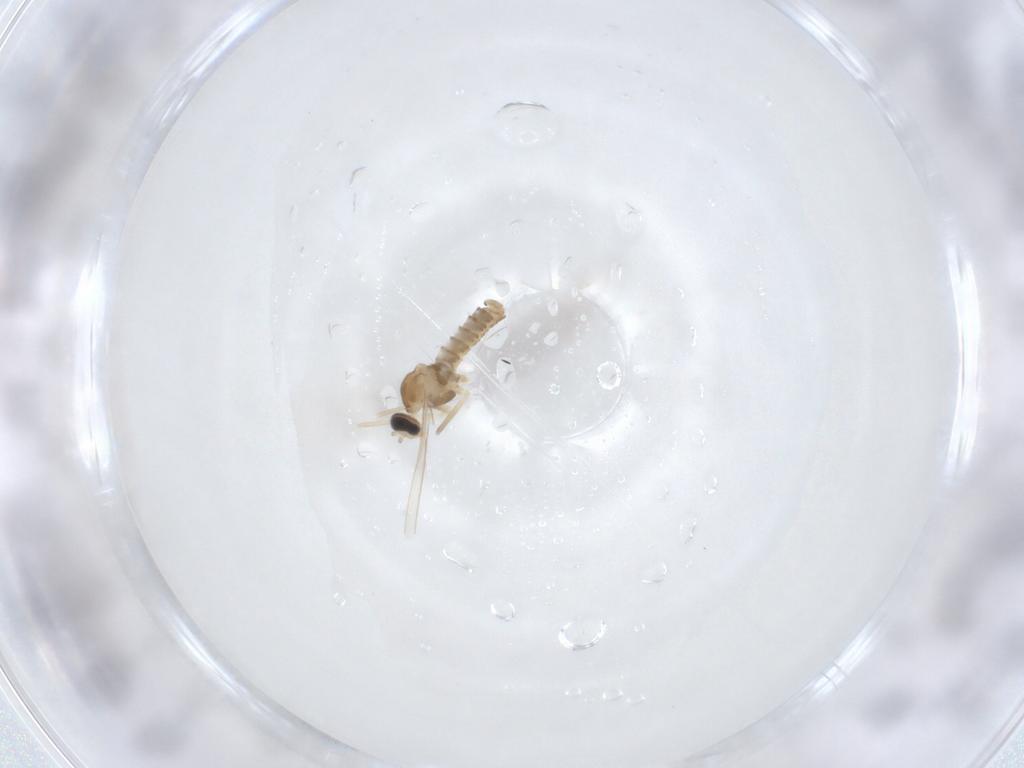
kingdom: Animalia
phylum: Arthropoda
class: Insecta
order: Diptera
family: Cecidomyiidae
